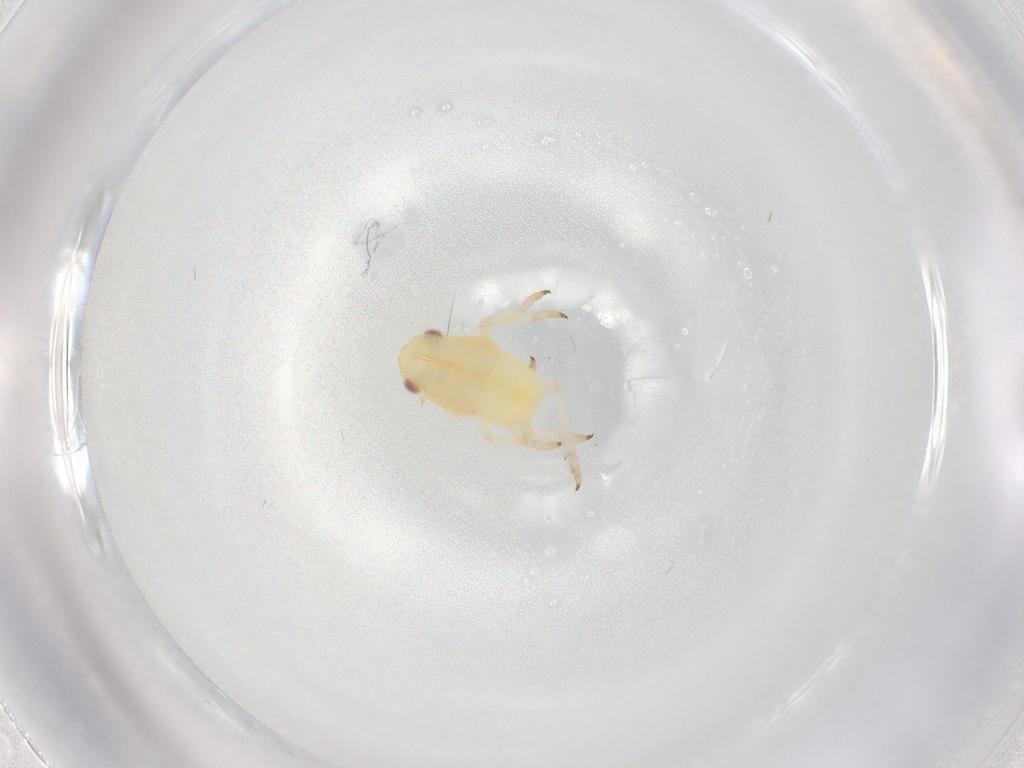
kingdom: Animalia
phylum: Arthropoda
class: Insecta
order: Hemiptera
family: Caliscelidae
